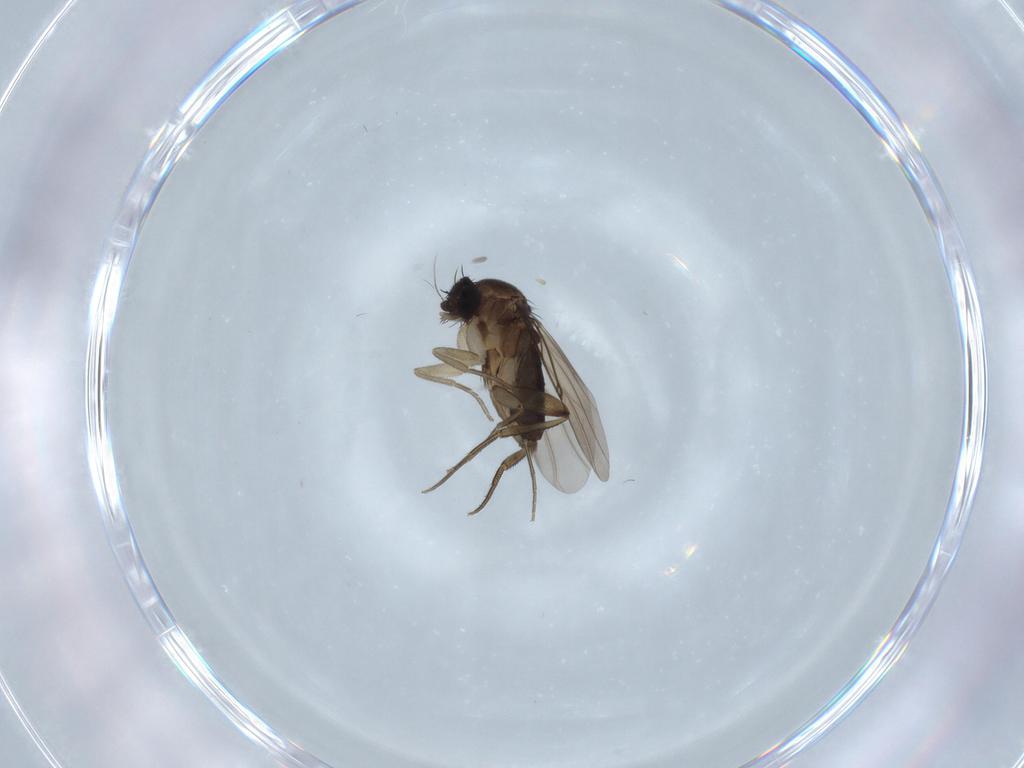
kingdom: Animalia
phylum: Arthropoda
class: Insecta
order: Diptera
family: Phoridae
